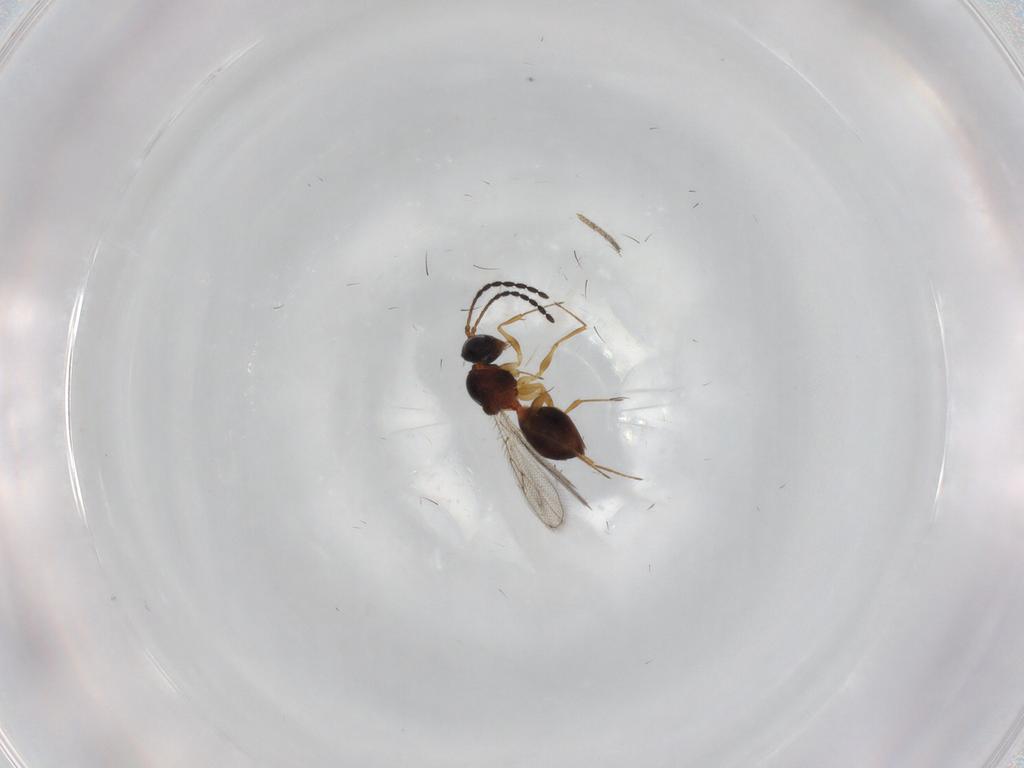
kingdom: Animalia
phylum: Arthropoda
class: Insecta
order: Hymenoptera
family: Figitidae
